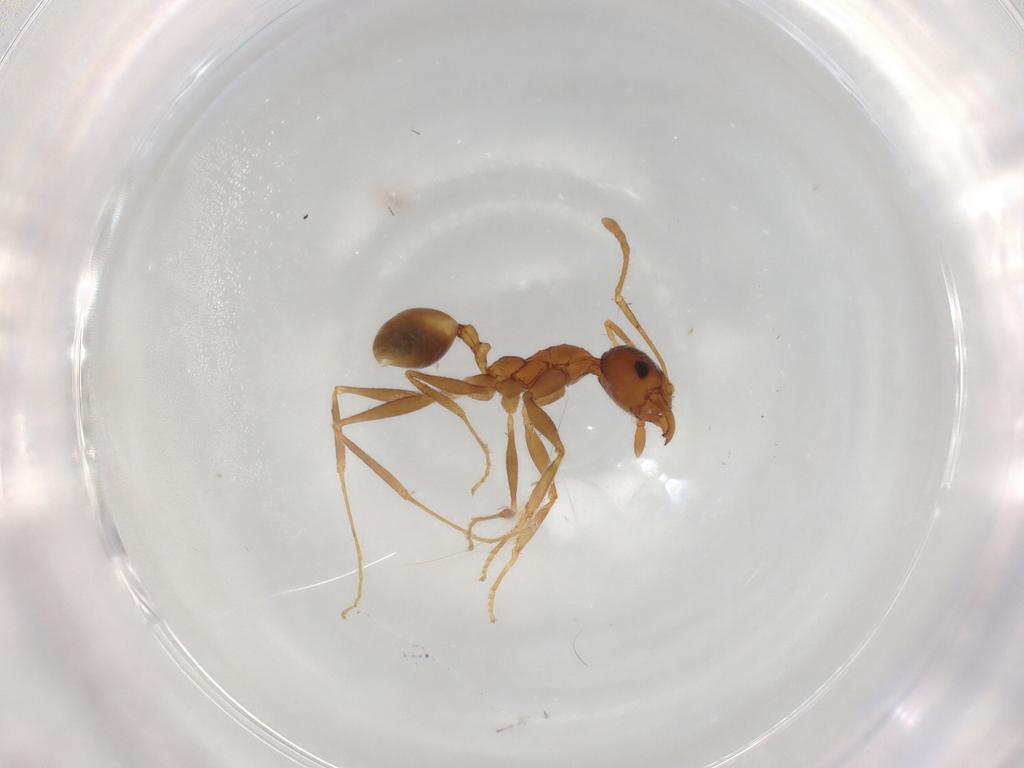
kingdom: Animalia
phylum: Arthropoda
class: Insecta
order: Hymenoptera
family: Formicidae
